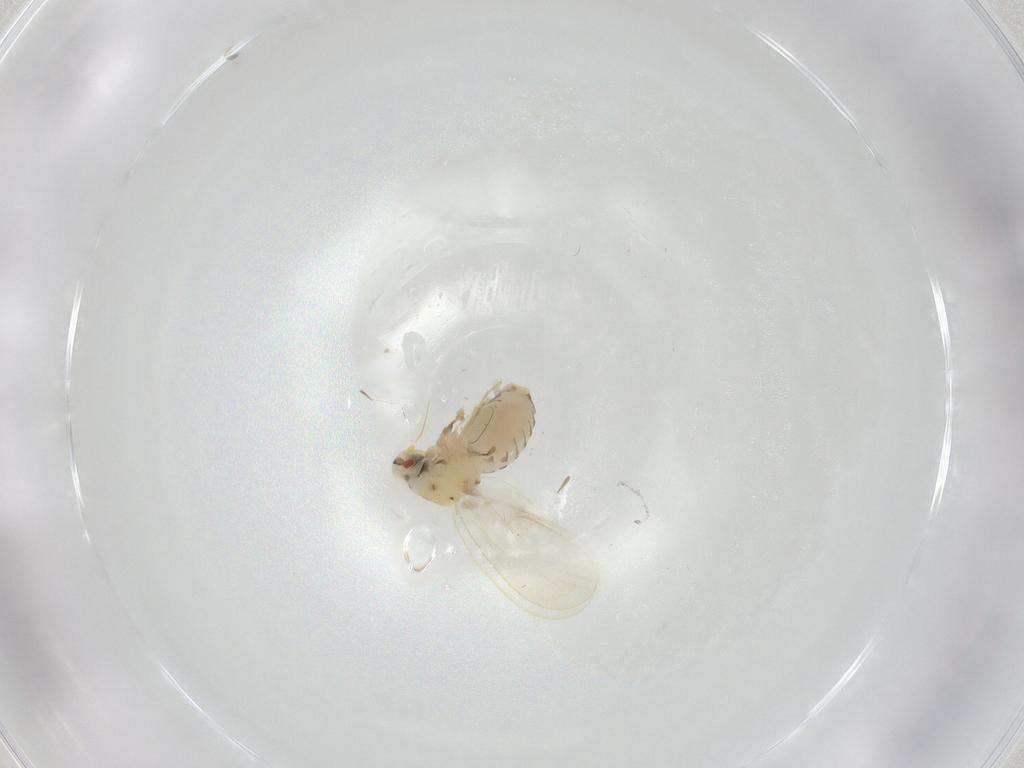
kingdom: Animalia
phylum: Arthropoda
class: Insecta
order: Hemiptera
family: Aleyrodidae
